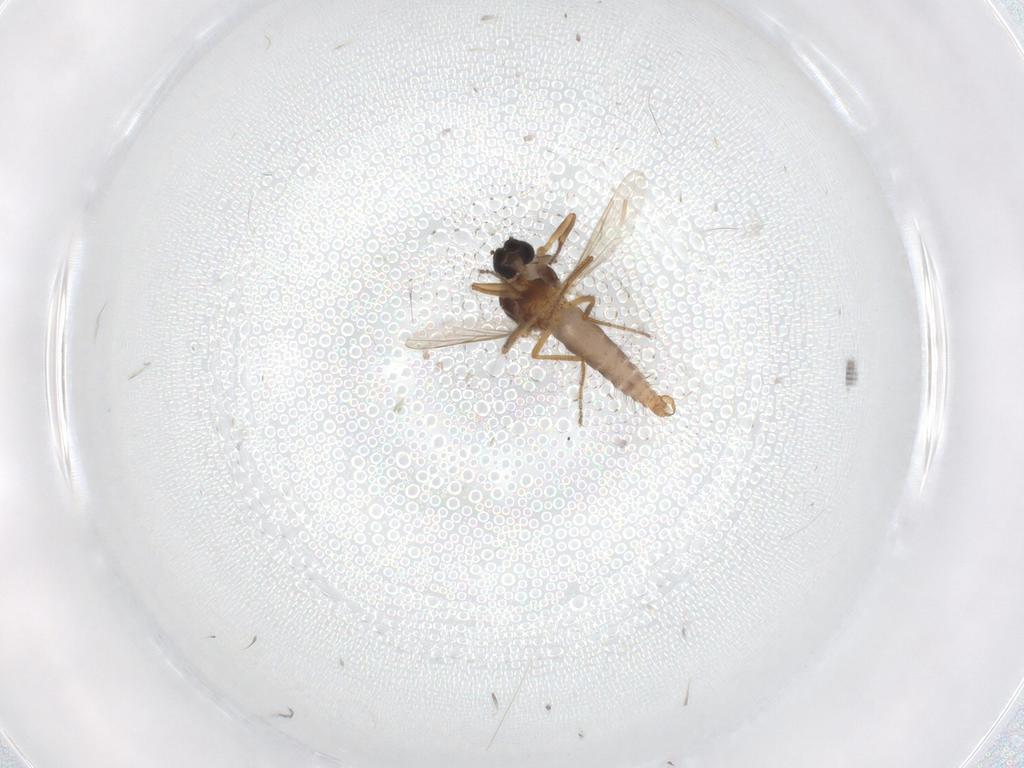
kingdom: Animalia
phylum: Arthropoda
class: Insecta
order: Diptera
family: Ceratopogonidae
